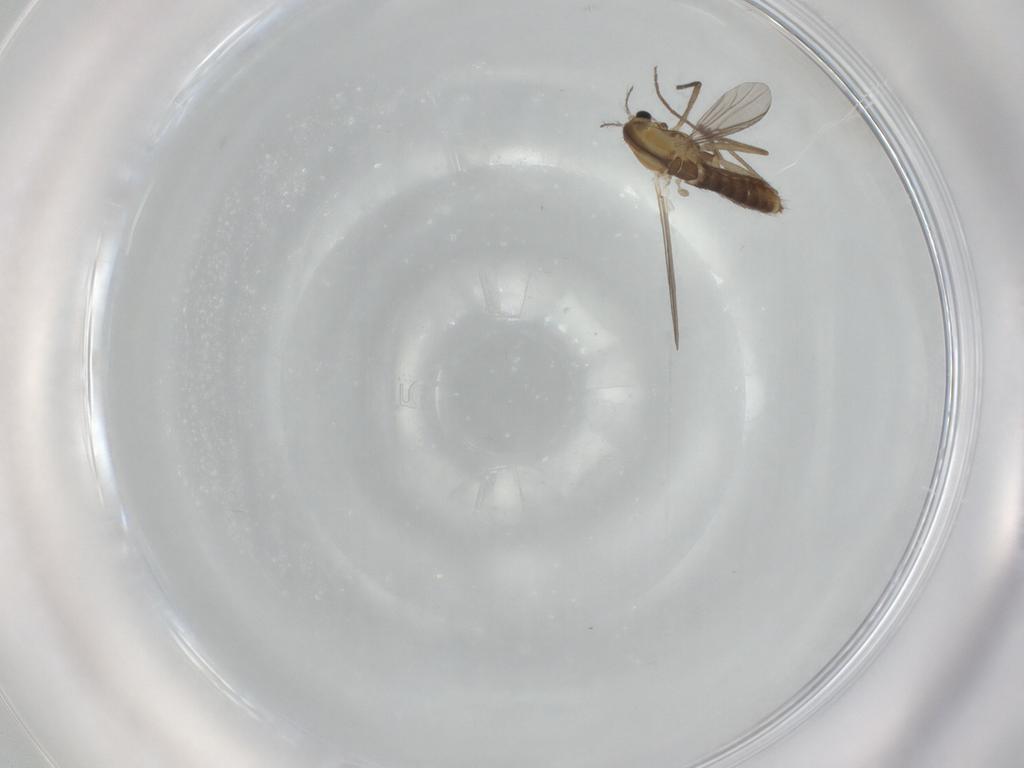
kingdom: Animalia
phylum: Arthropoda
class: Insecta
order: Diptera
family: Chironomidae
